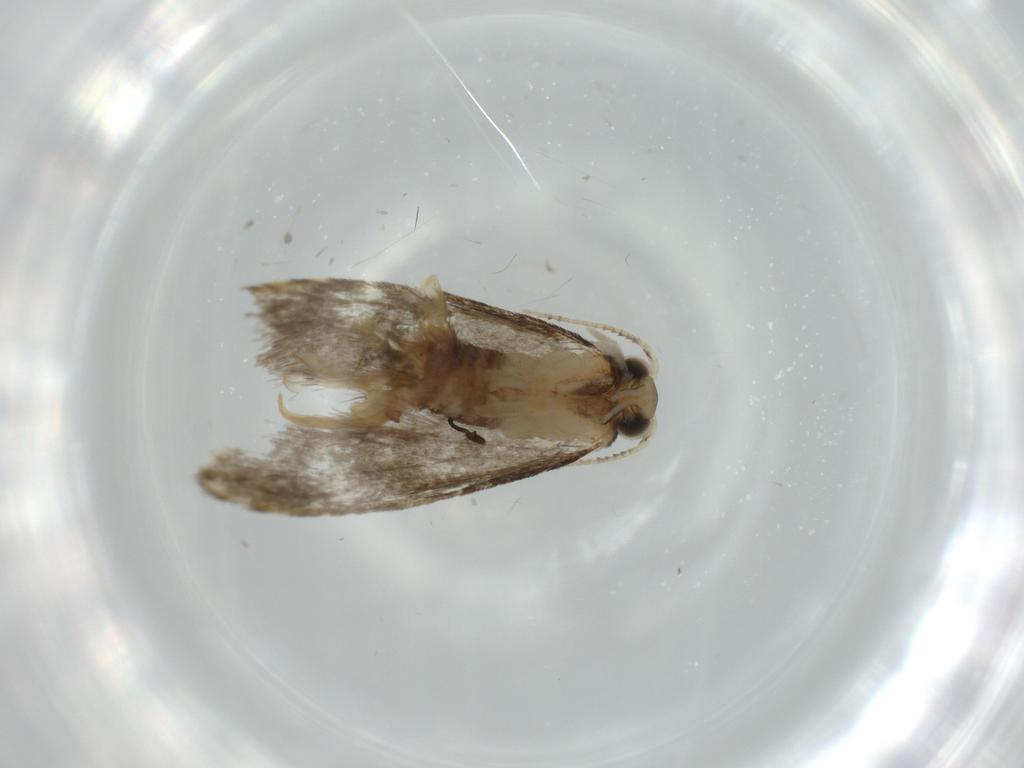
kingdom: Animalia
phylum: Arthropoda
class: Insecta
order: Lepidoptera
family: Tineidae
